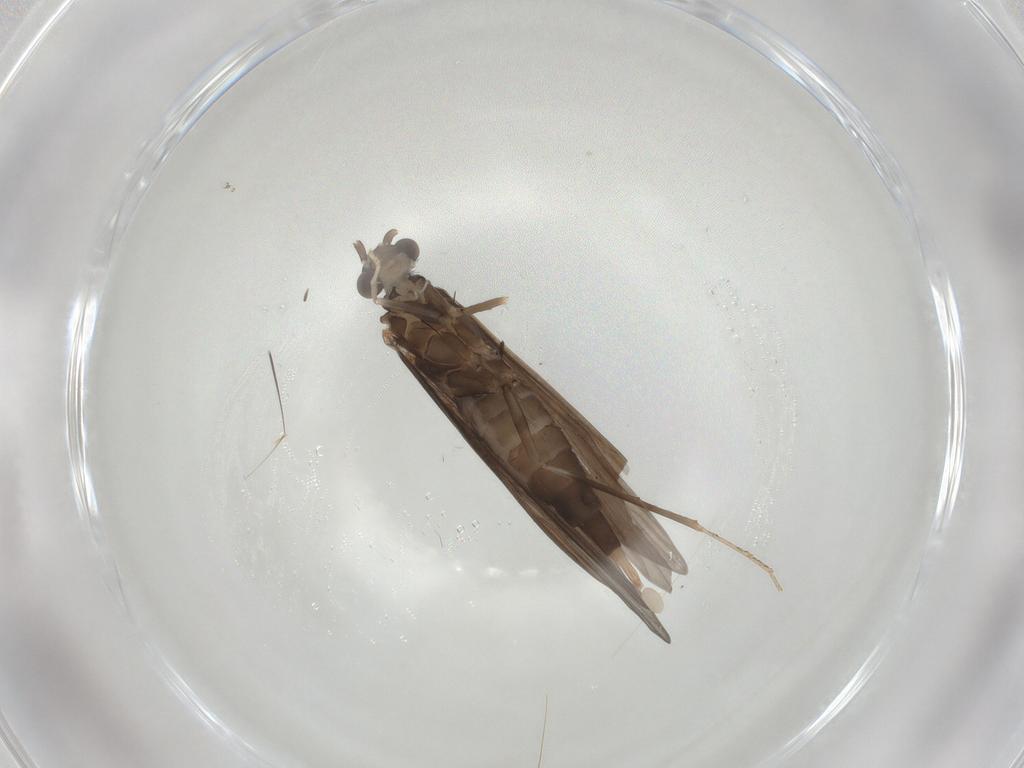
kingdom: Animalia
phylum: Arthropoda
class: Insecta
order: Trichoptera
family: Xiphocentronidae
